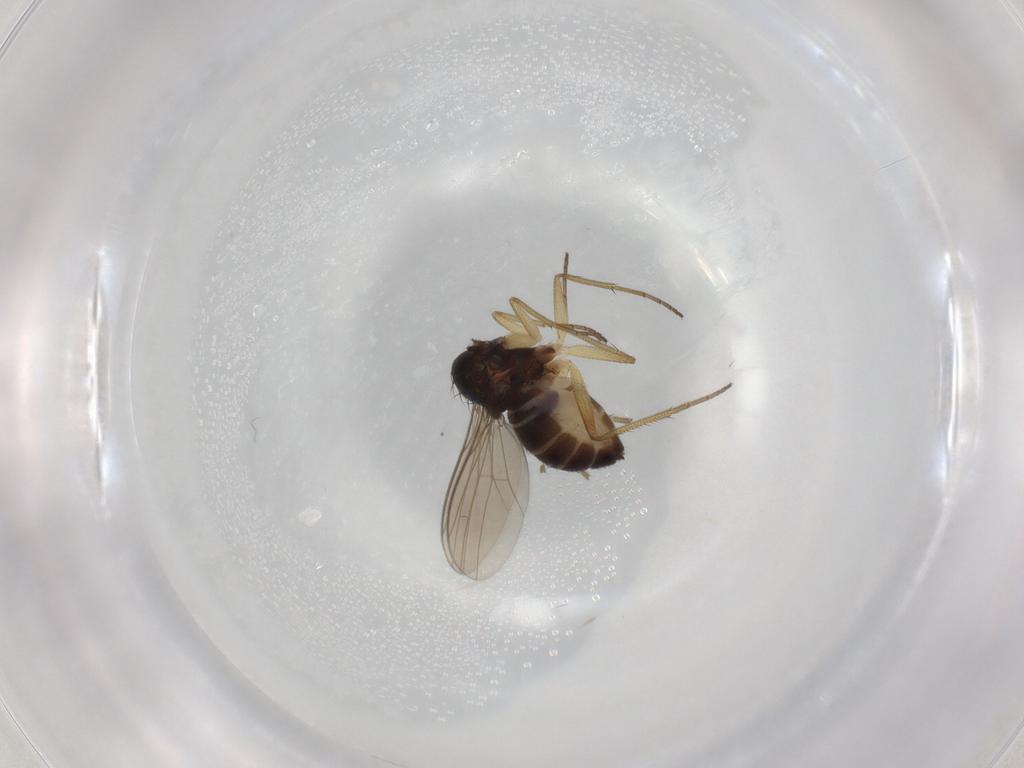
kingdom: Animalia
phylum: Arthropoda
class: Insecta
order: Diptera
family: Dolichopodidae
